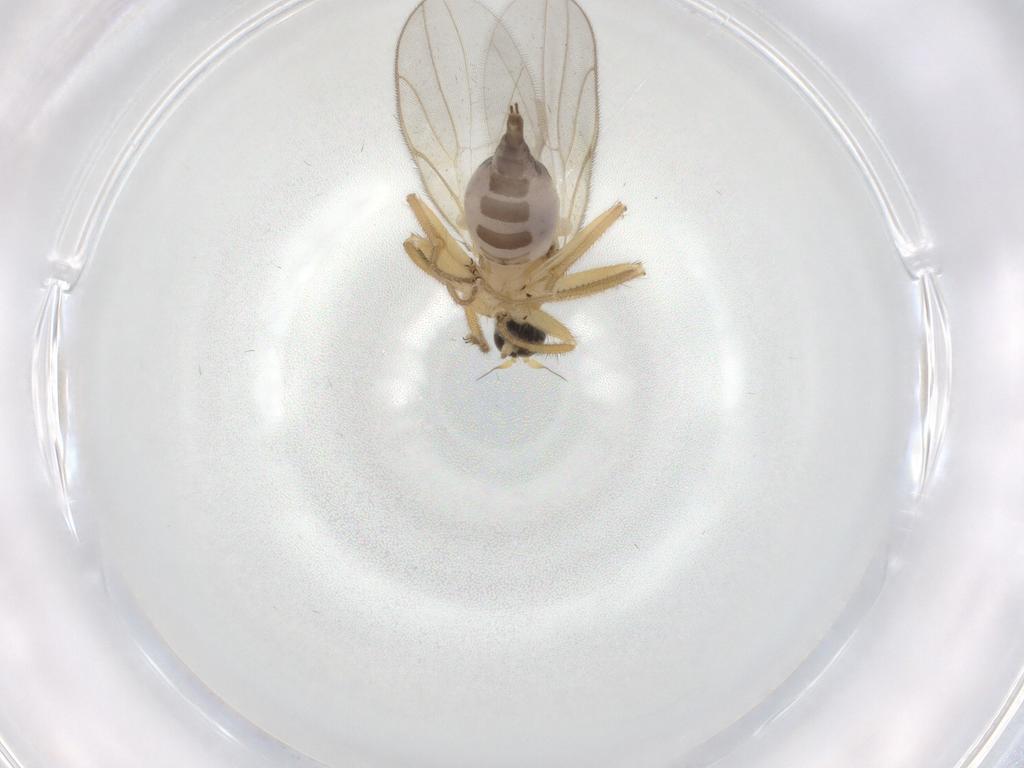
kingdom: Animalia
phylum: Arthropoda
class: Insecta
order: Diptera
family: Hybotidae
